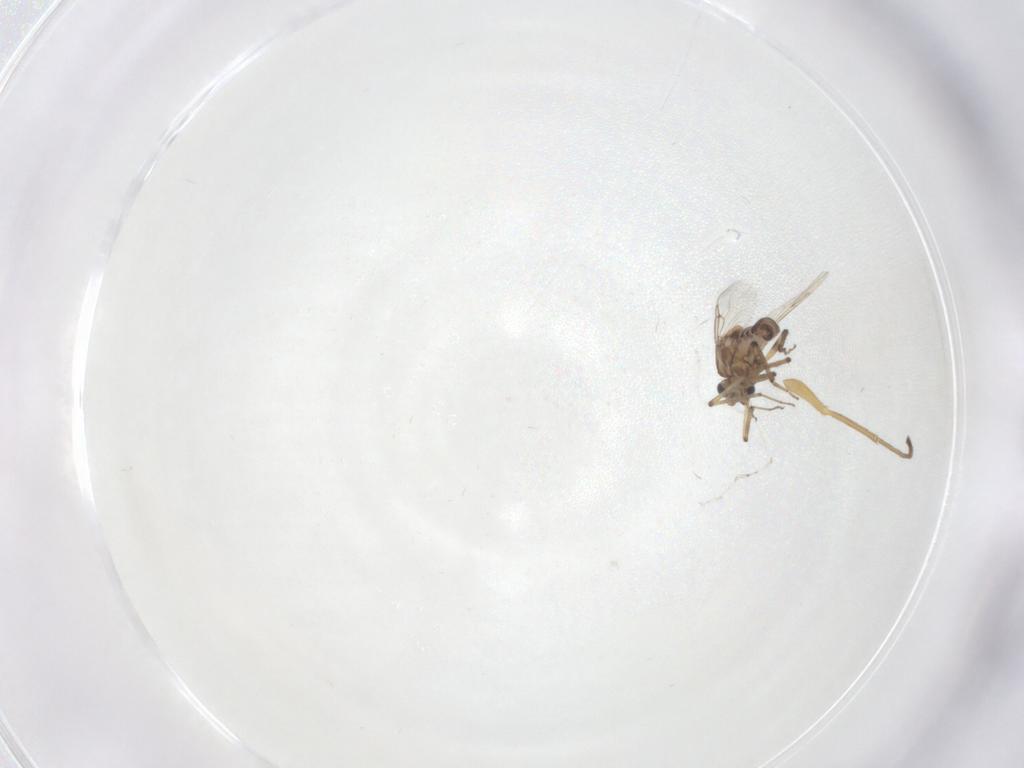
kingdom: Animalia
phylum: Arthropoda
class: Insecta
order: Diptera
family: Ceratopogonidae
